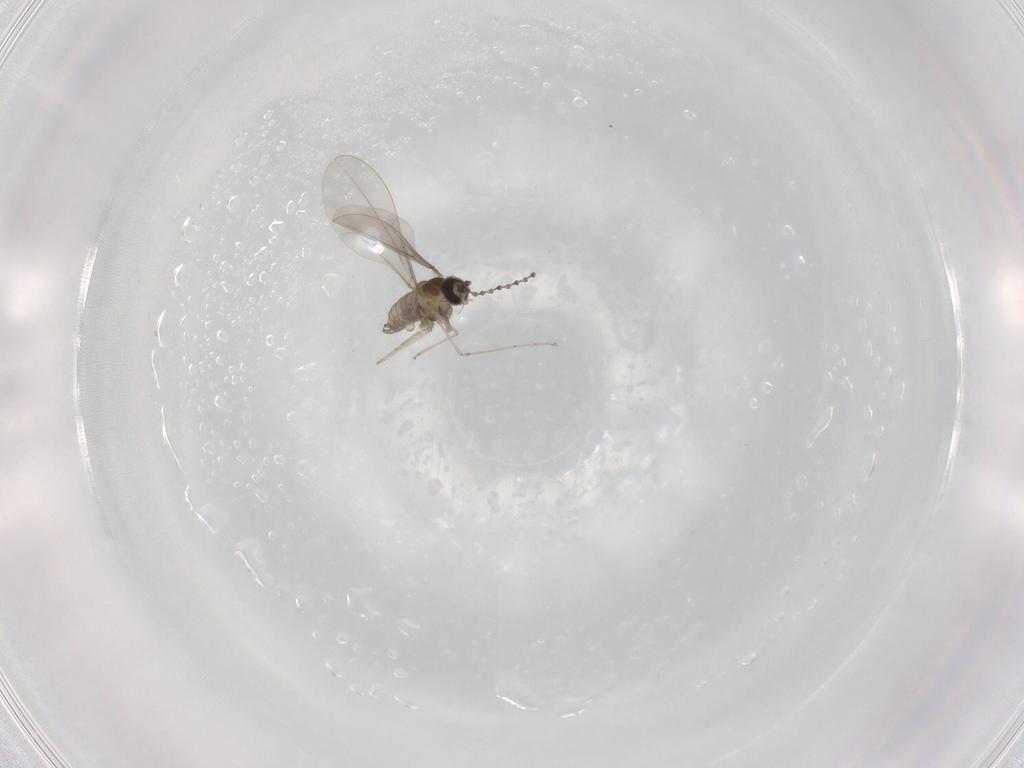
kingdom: Animalia
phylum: Arthropoda
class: Insecta
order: Diptera
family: Cecidomyiidae
